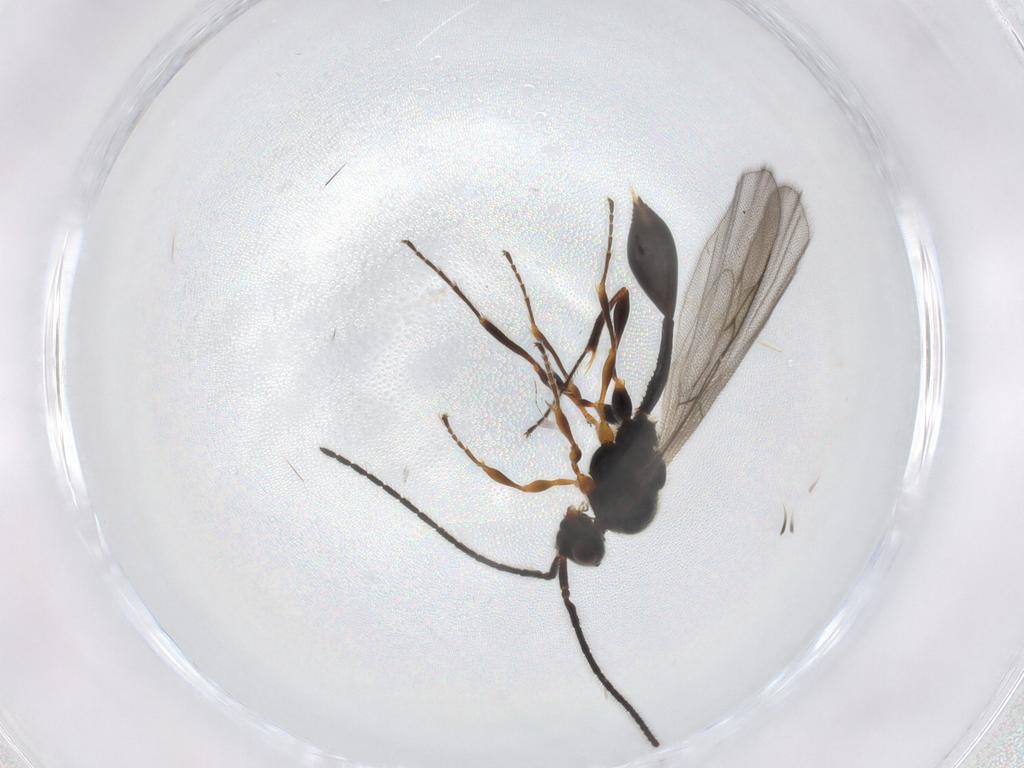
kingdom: Animalia
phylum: Arthropoda
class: Insecta
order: Hymenoptera
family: Diapriidae
